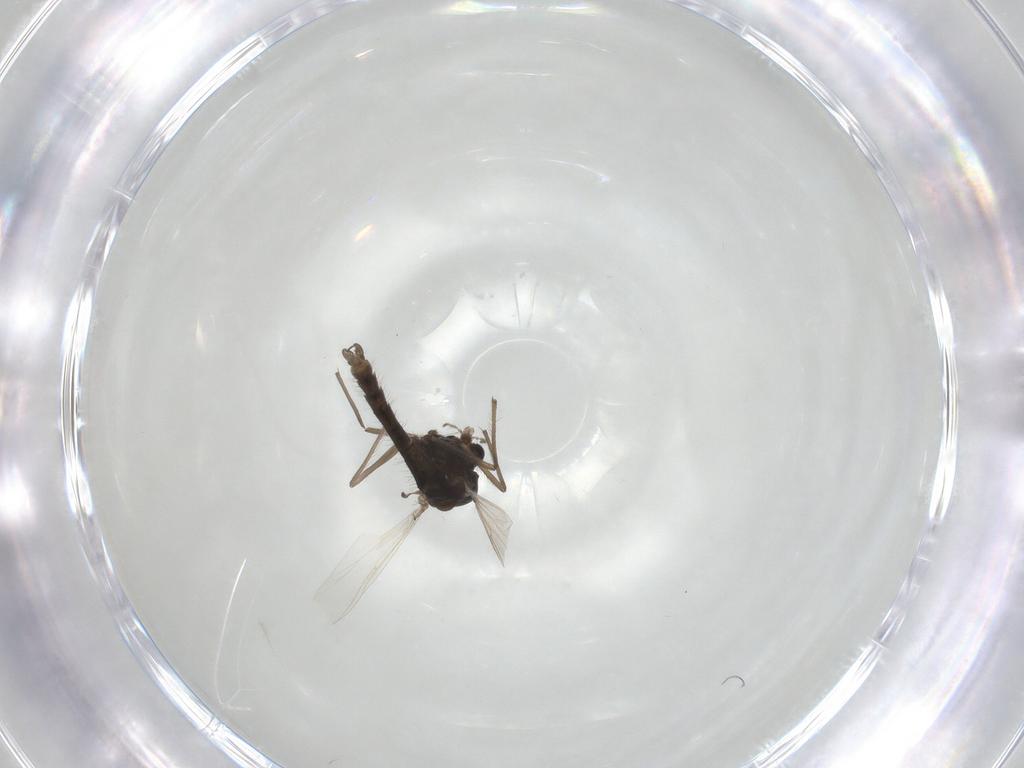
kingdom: Animalia
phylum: Arthropoda
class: Insecta
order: Diptera
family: Chironomidae
